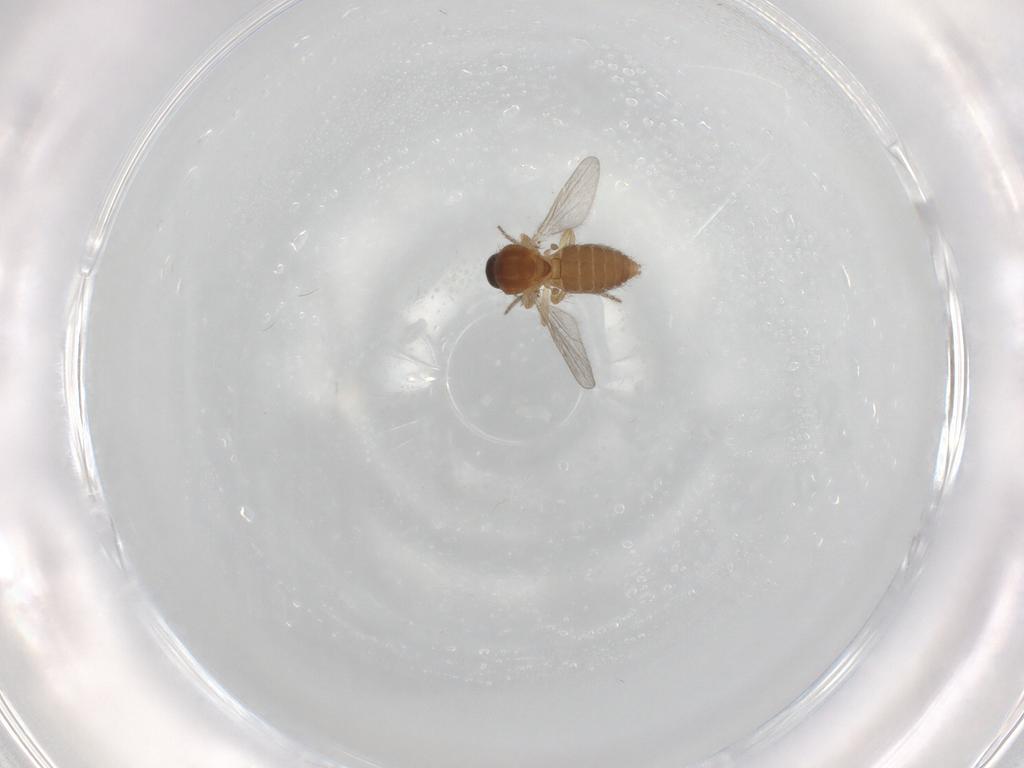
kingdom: Animalia
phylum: Arthropoda
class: Insecta
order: Diptera
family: Ceratopogonidae
